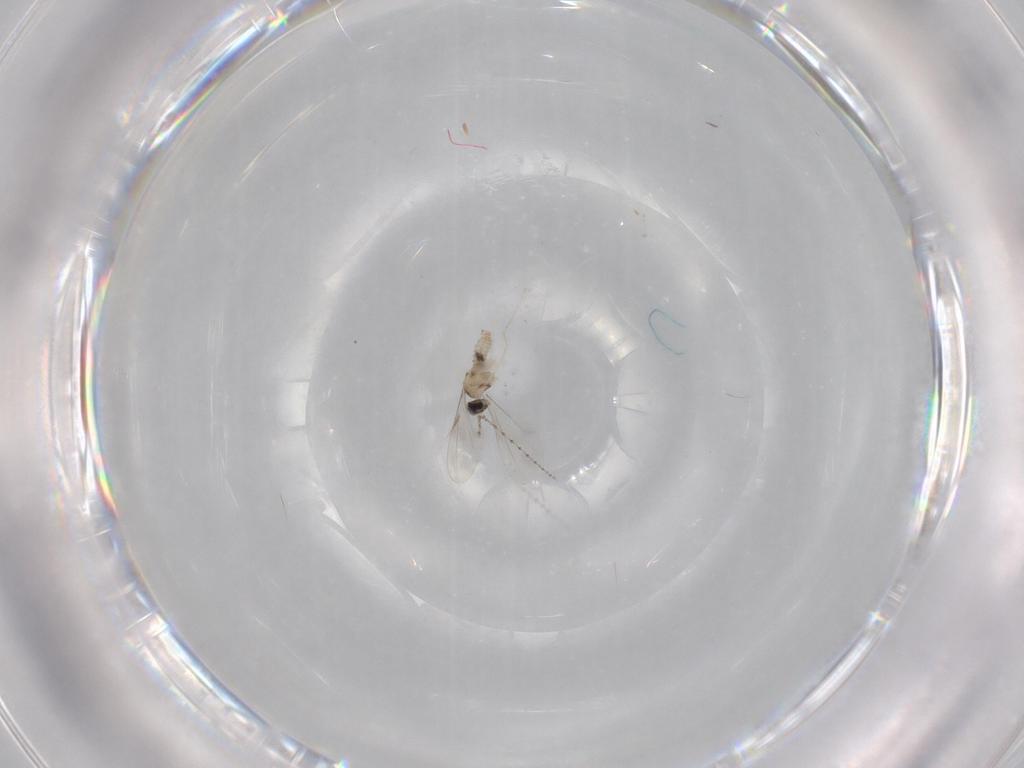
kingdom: Animalia
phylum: Arthropoda
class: Insecta
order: Diptera
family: Cecidomyiidae
